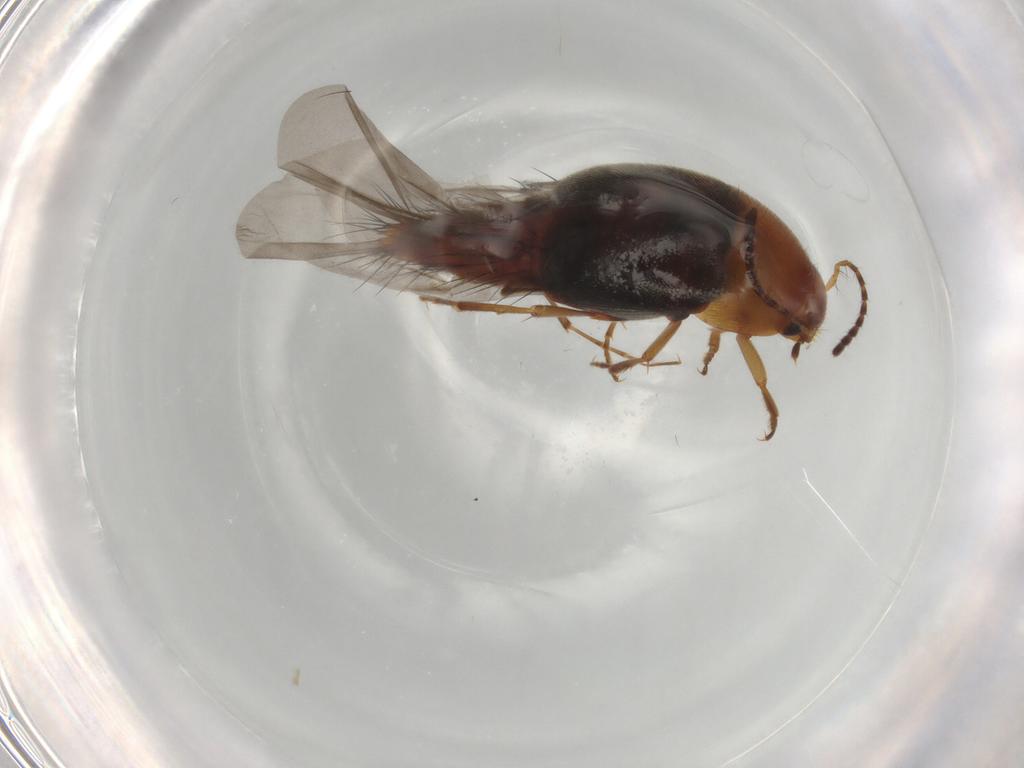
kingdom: Animalia
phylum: Arthropoda
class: Insecta
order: Coleoptera
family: Staphylinidae
